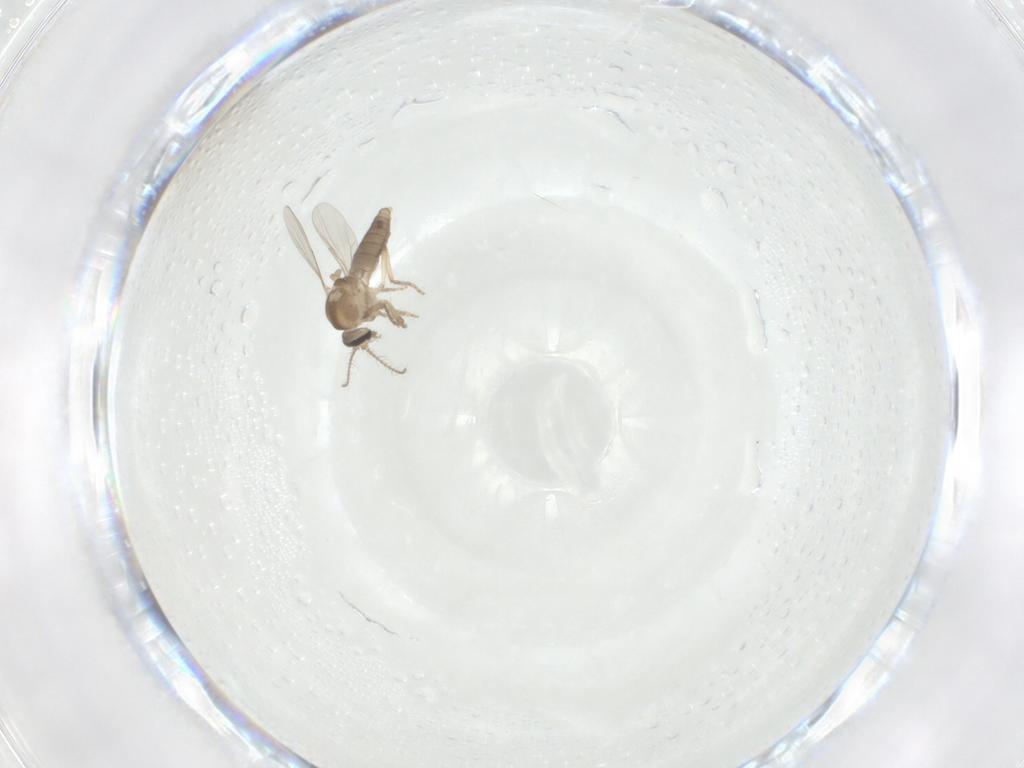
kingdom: Animalia
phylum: Arthropoda
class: Insecta
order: Diptera
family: Ceratopogonidae
